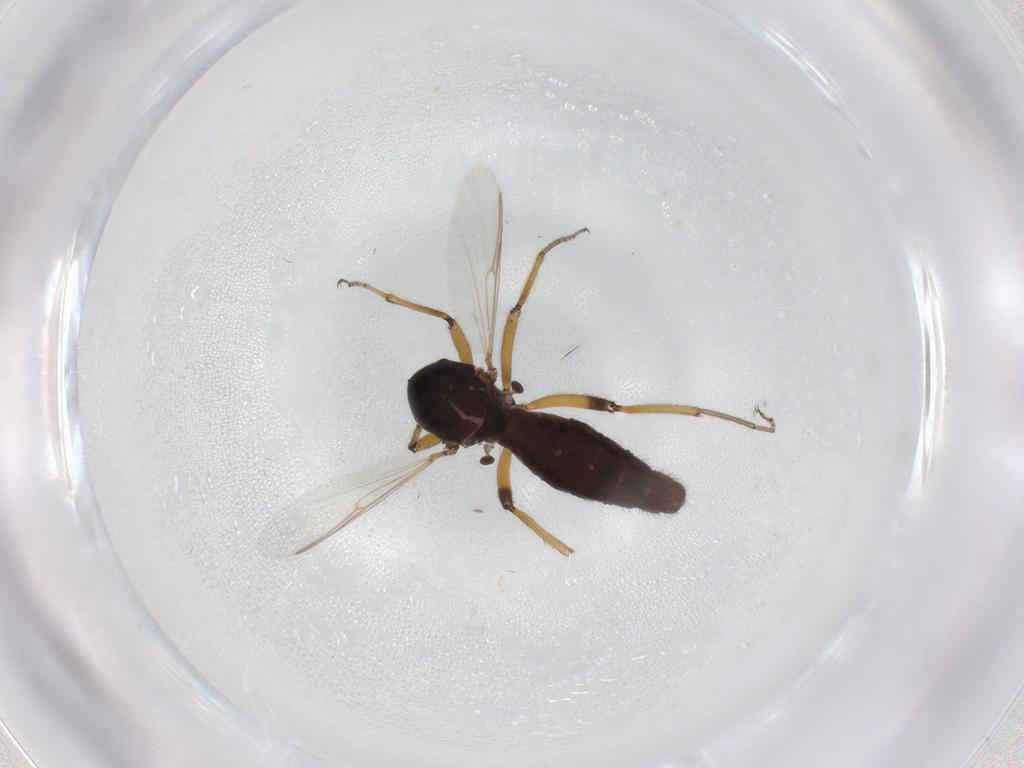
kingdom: Animalia
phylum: Arthropoda
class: Insecta
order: Diptera
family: Ceratopogonidae
